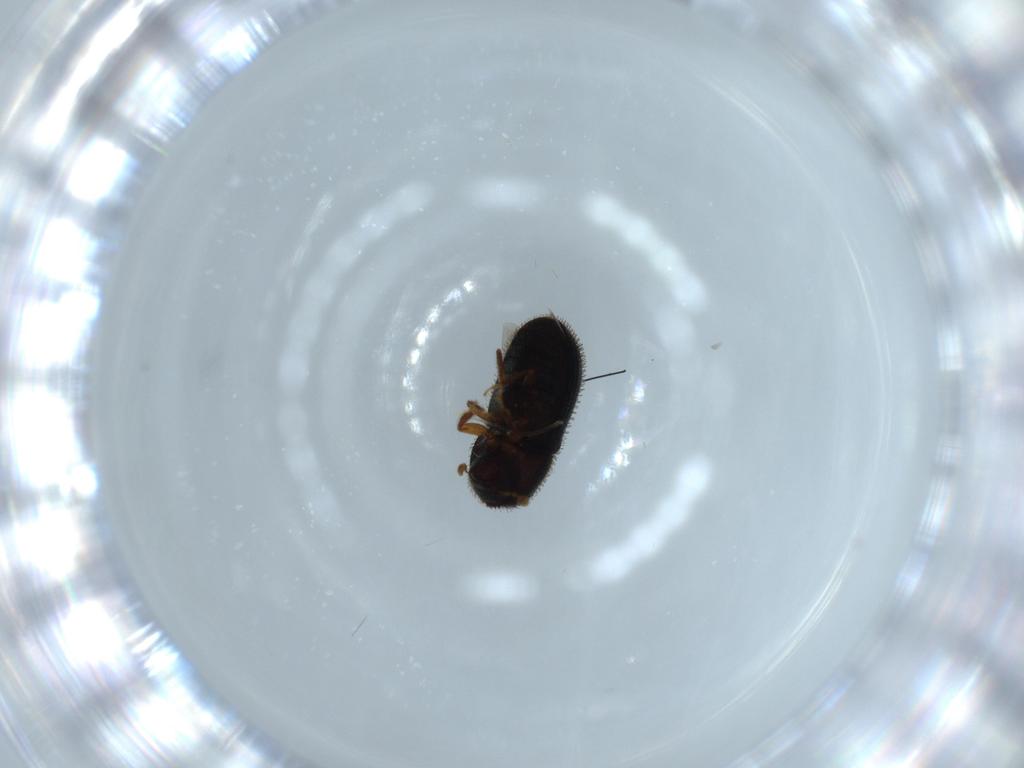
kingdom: Animalia
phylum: Arthropoda
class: Insecta
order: Coleoptera
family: Curculionidae
